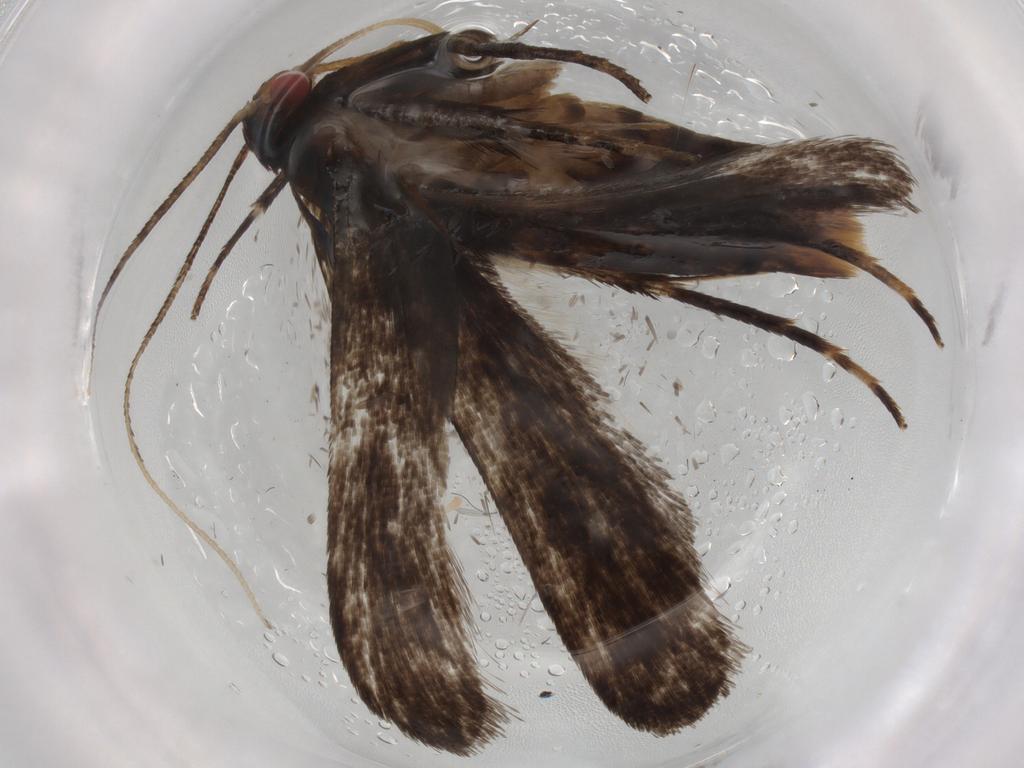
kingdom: Animalia
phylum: Arthropoda
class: Insecta
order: Lepidoptera
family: Gelechiidae
